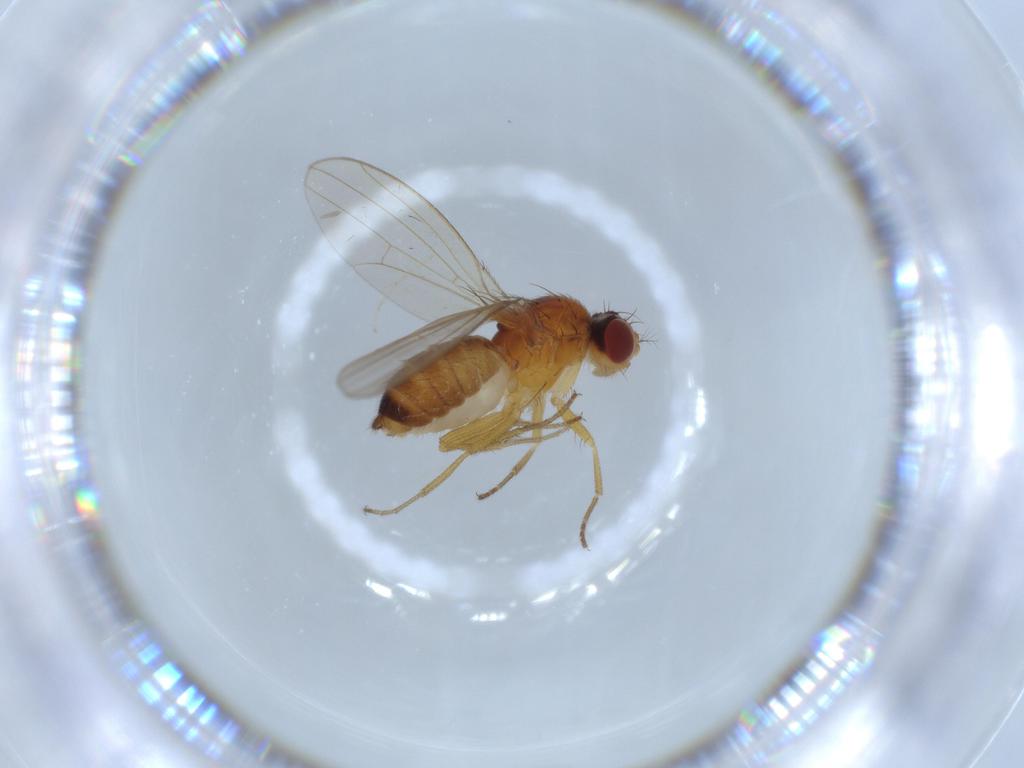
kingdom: Animalia
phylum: Arthropoda
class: Insecta
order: Diptera
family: Drosophilidae
